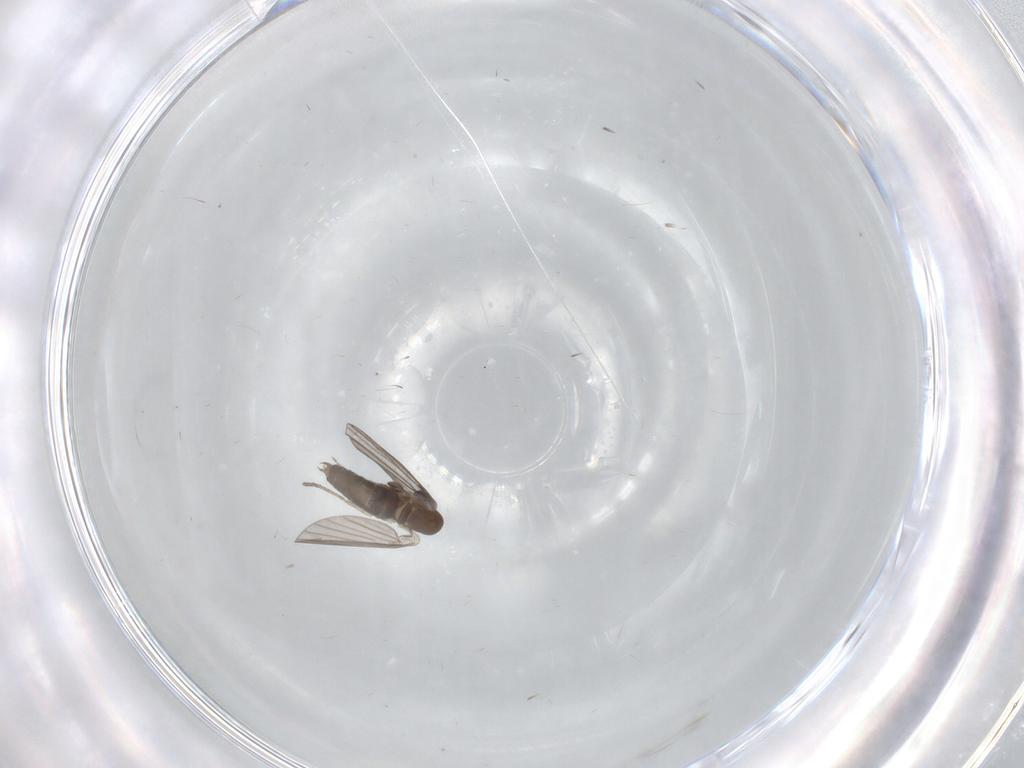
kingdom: Animalia
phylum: Arthropoda
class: Insecta
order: Diptera
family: Phoridae
